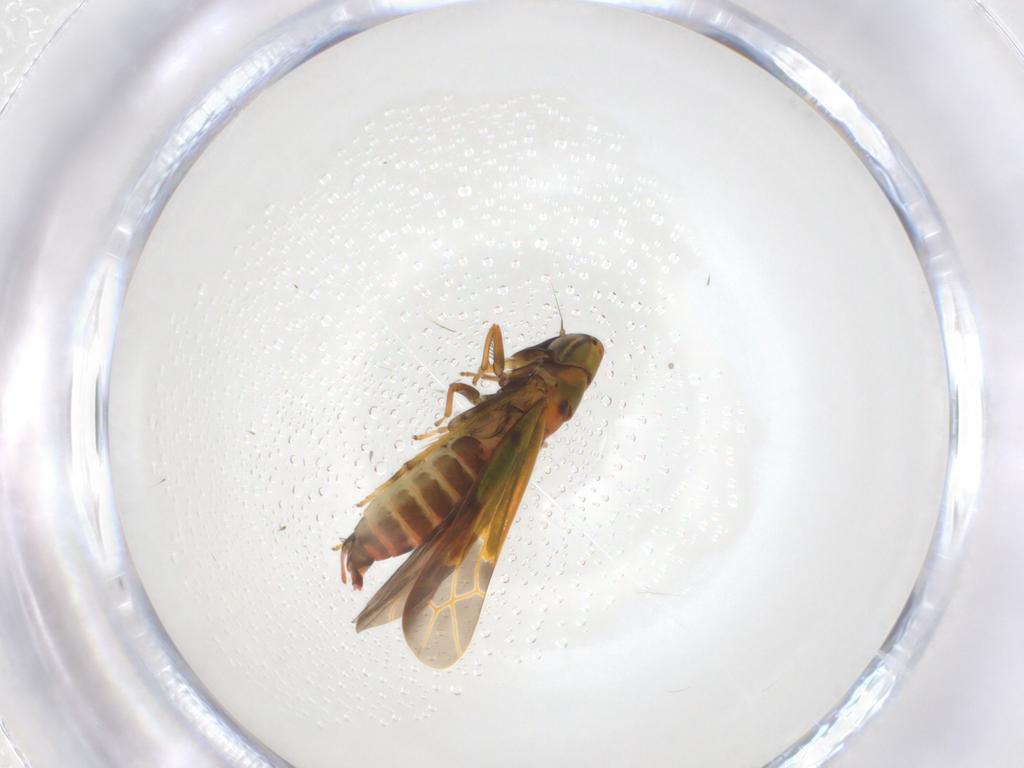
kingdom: Animalia
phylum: Arthropoda
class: Insecta
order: Hemiptera
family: Cicadellidae
